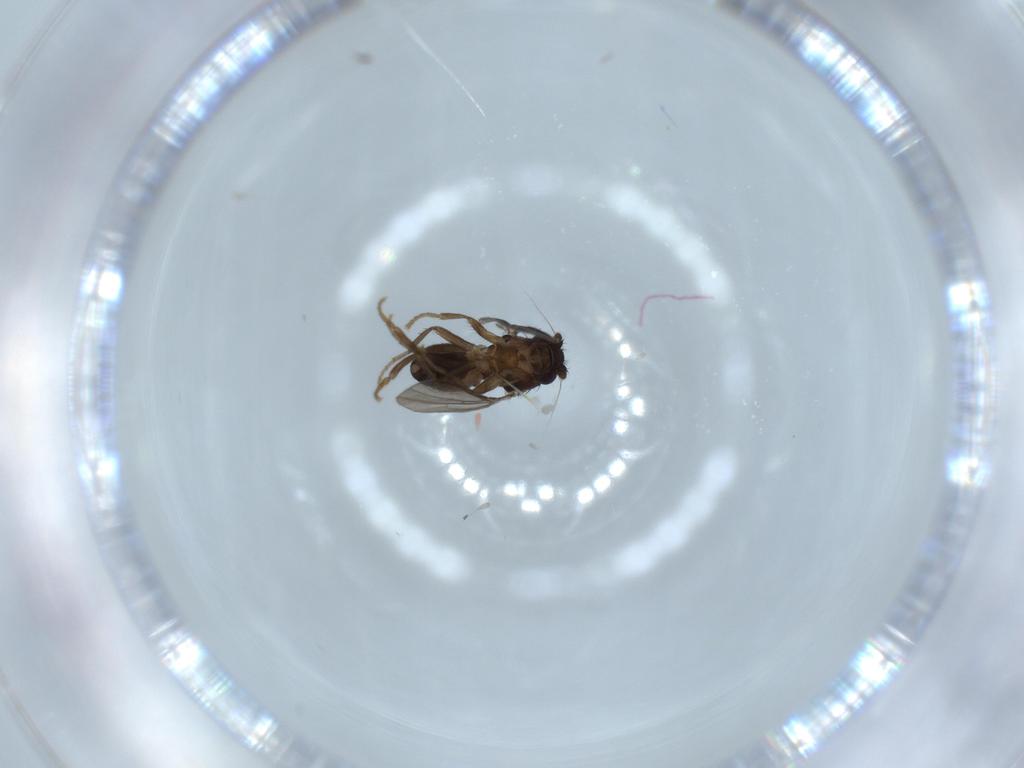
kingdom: Animalia
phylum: Arthropoda
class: Insecta
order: Diptera
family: Sphaeroceridae
